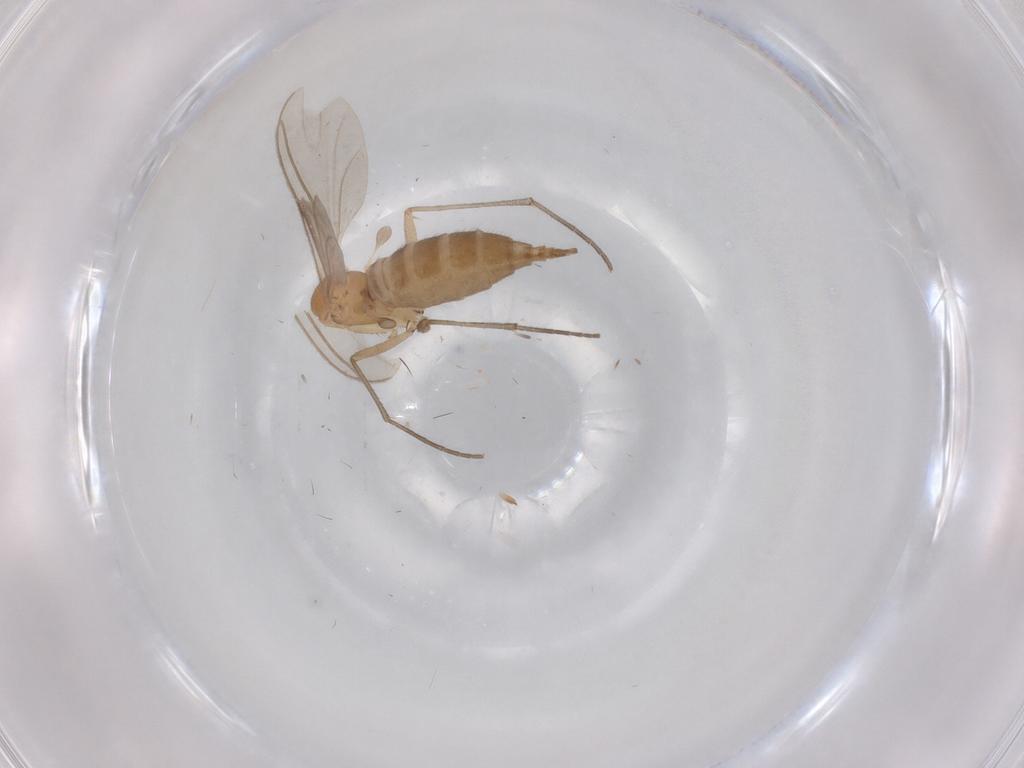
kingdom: Animalia
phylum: Arthropoda
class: Insecta
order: Diptera
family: Sciaridae
